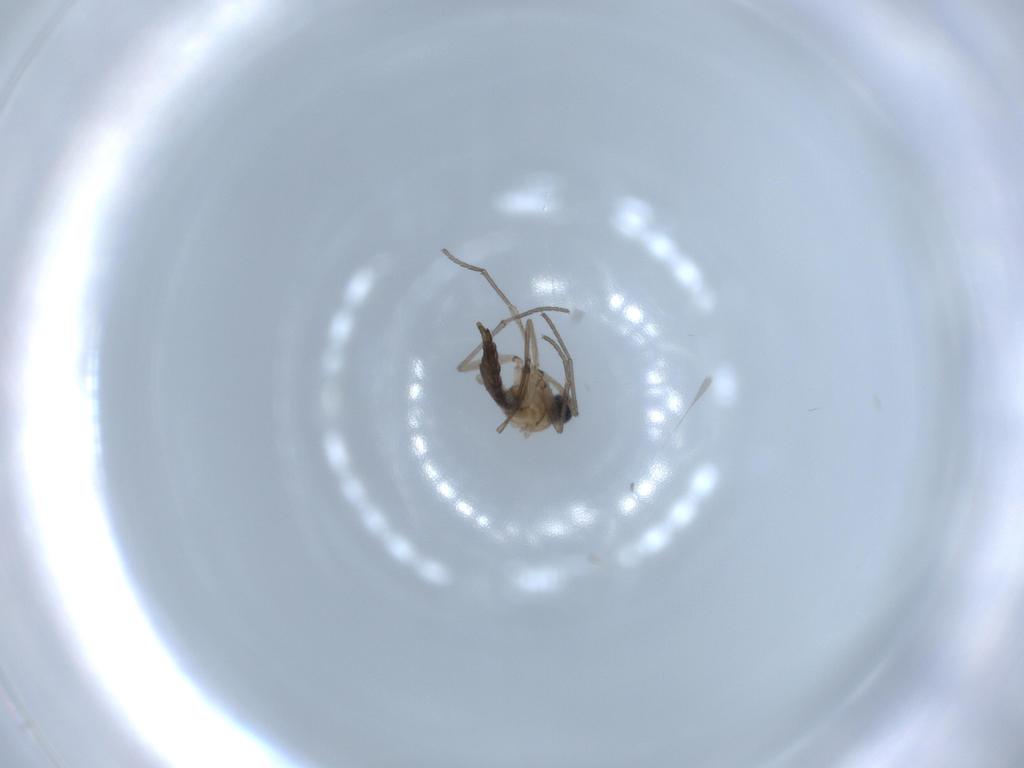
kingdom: Animalia
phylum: Arthropoda
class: Insecta
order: Diptera
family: Sciaridae
